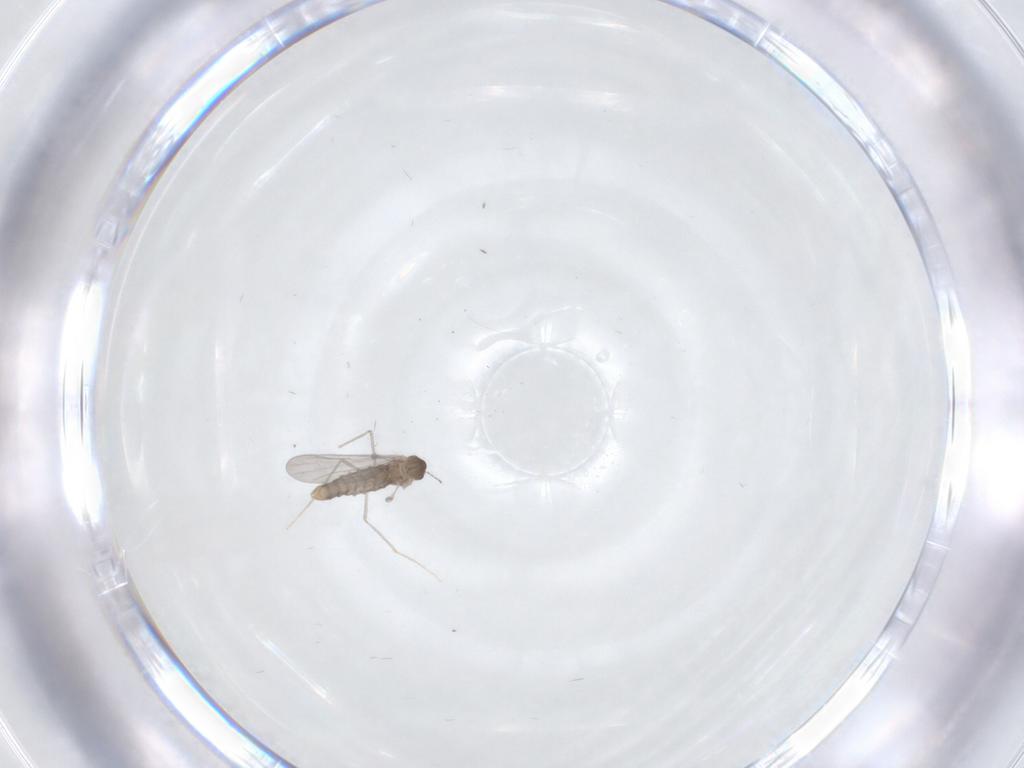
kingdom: Animalia
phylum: Arthropoda
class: Insecta
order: Diptera
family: Chironomidae
